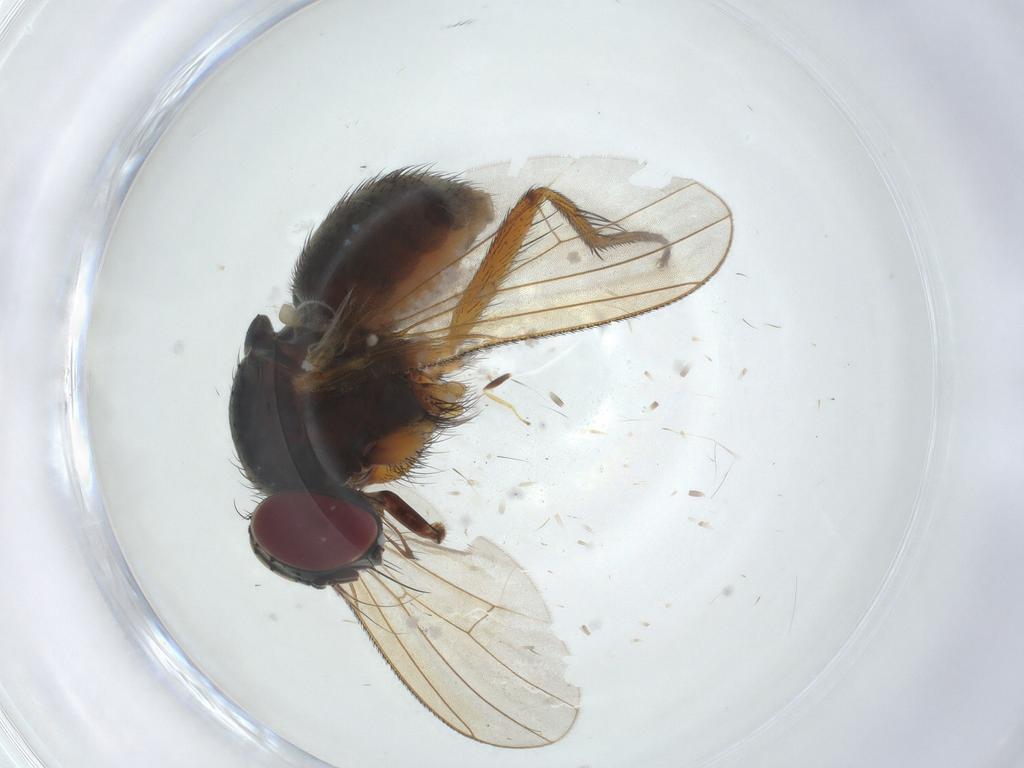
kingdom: Animalia
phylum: Arthropoda
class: Insecta
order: Diptera
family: Muscidae
